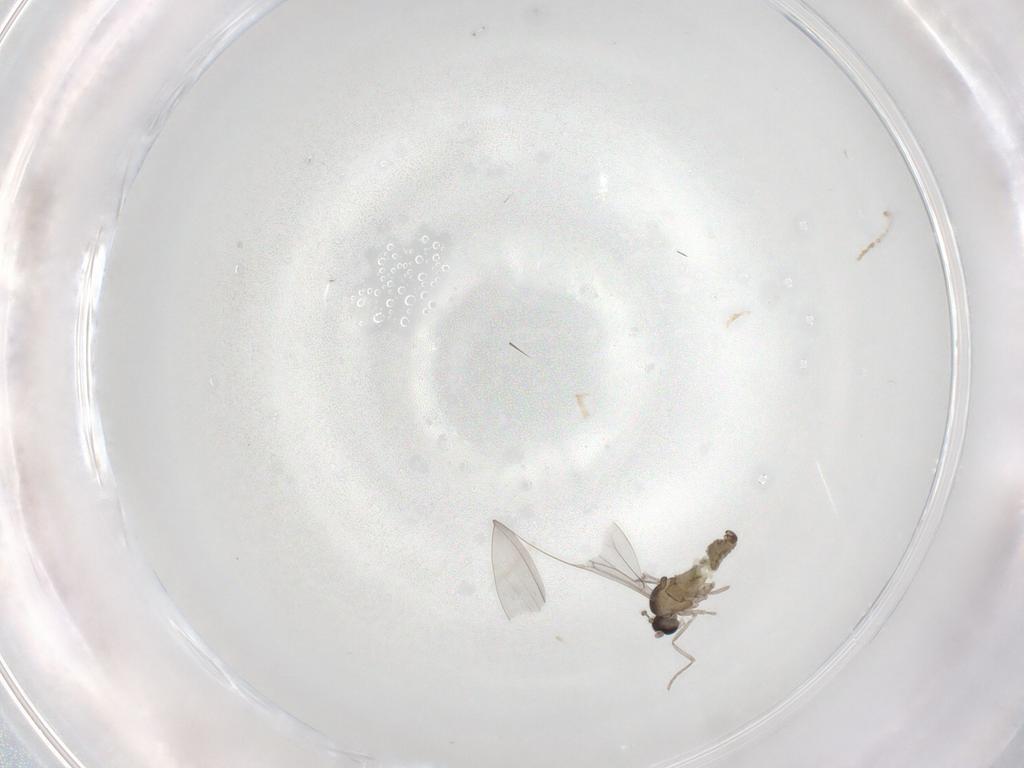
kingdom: Animalia
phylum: Arthropoda
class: Insecta
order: Diptera
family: Cecidomyiidae
